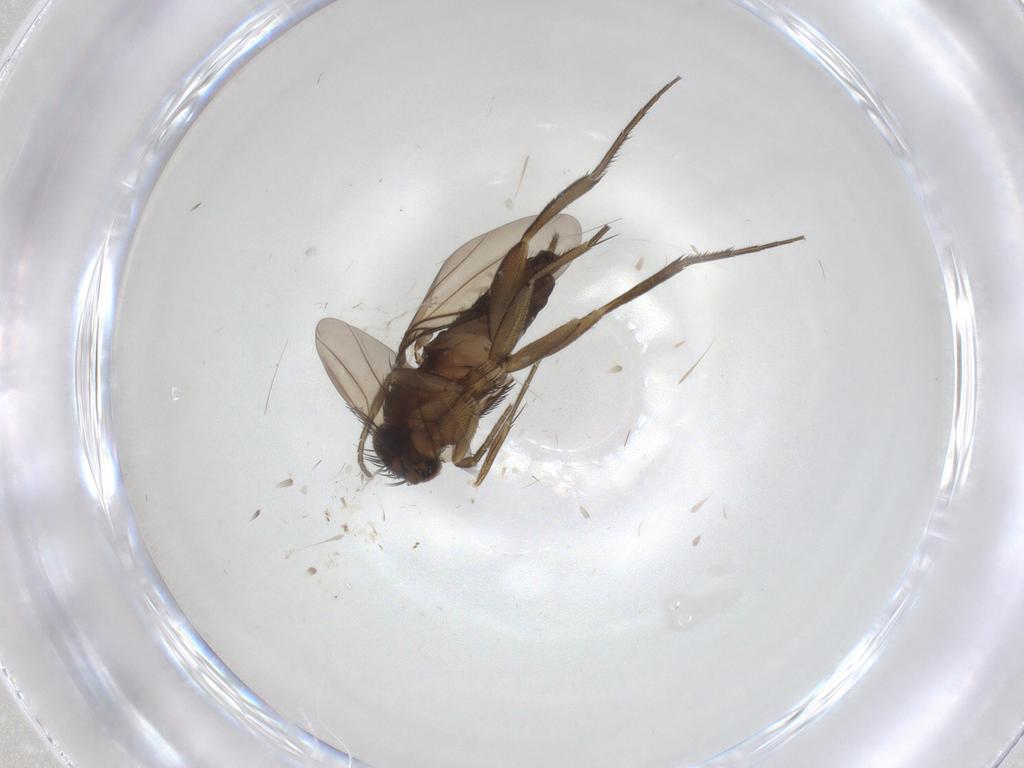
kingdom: Animalia
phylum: Arthropoda
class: Insecta
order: Diptera
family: Phoridae
